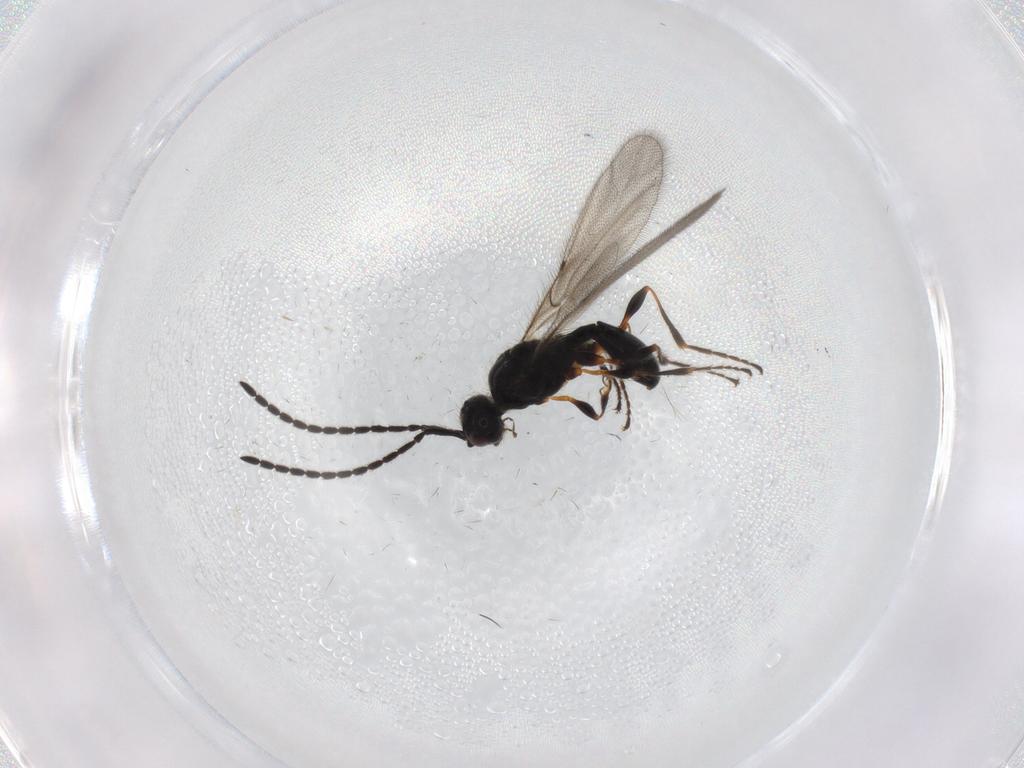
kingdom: Animalia
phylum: Arthropoda
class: Insecta
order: Hymenoptera
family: Diapriidae
